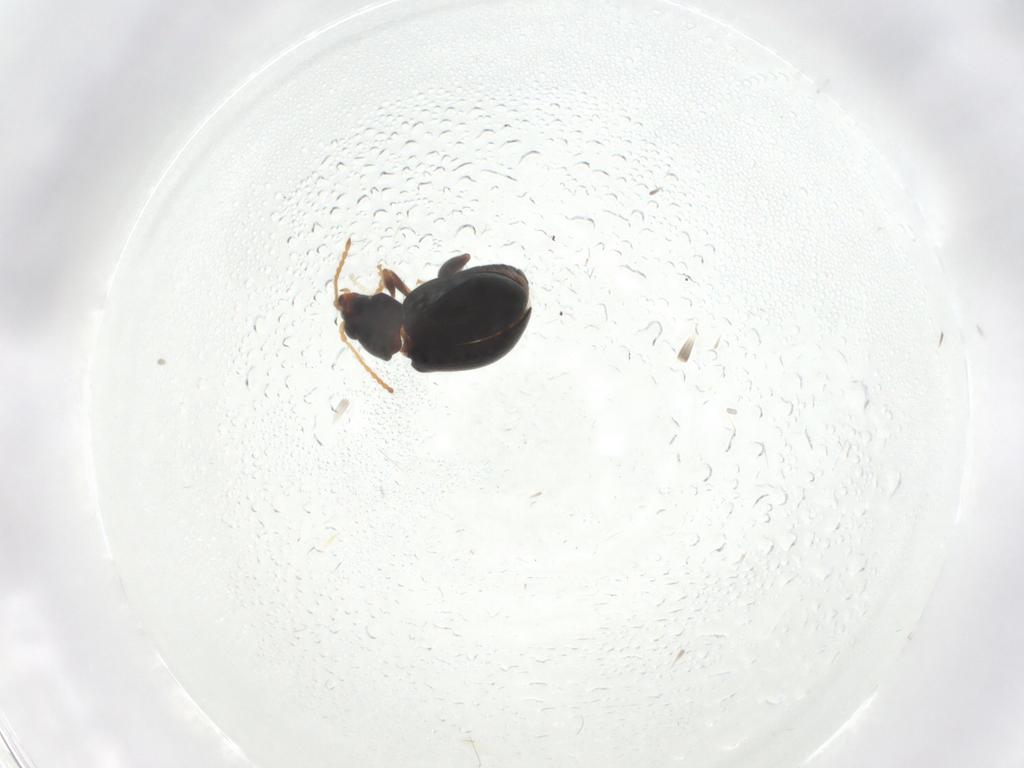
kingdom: Animalia
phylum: Arthropoda
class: Insecta
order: Coleoptera
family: Chrysomelidae
